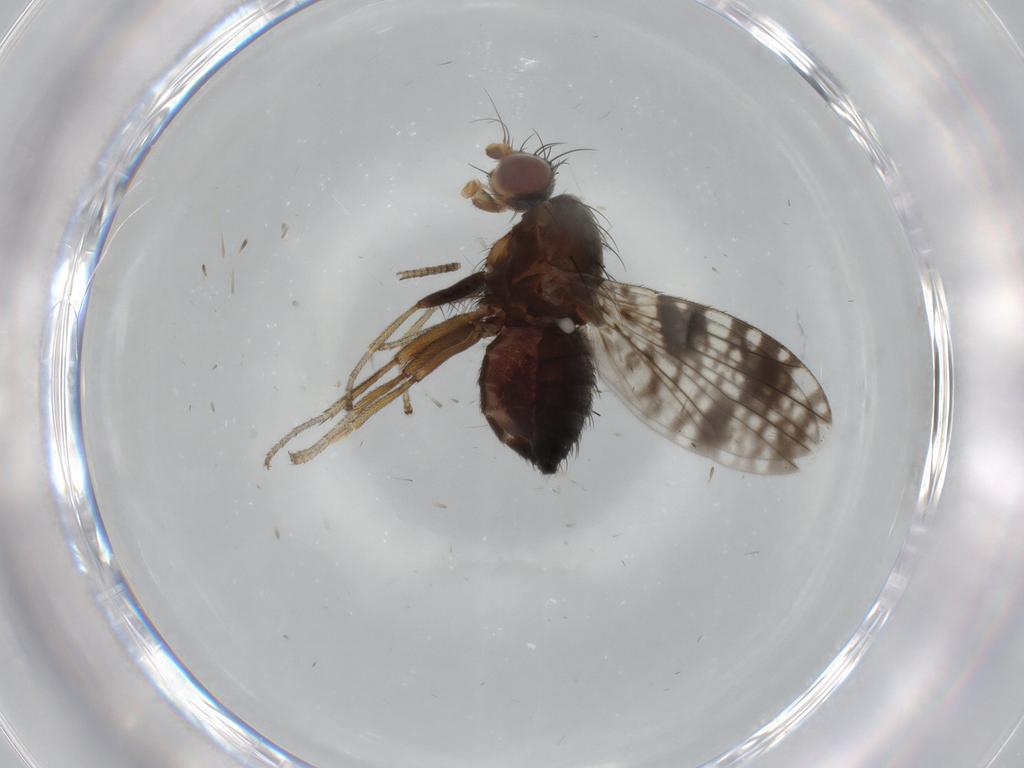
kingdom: Animalia
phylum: Arthropoda
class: Insecta
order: Diptera
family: Tephritidae
